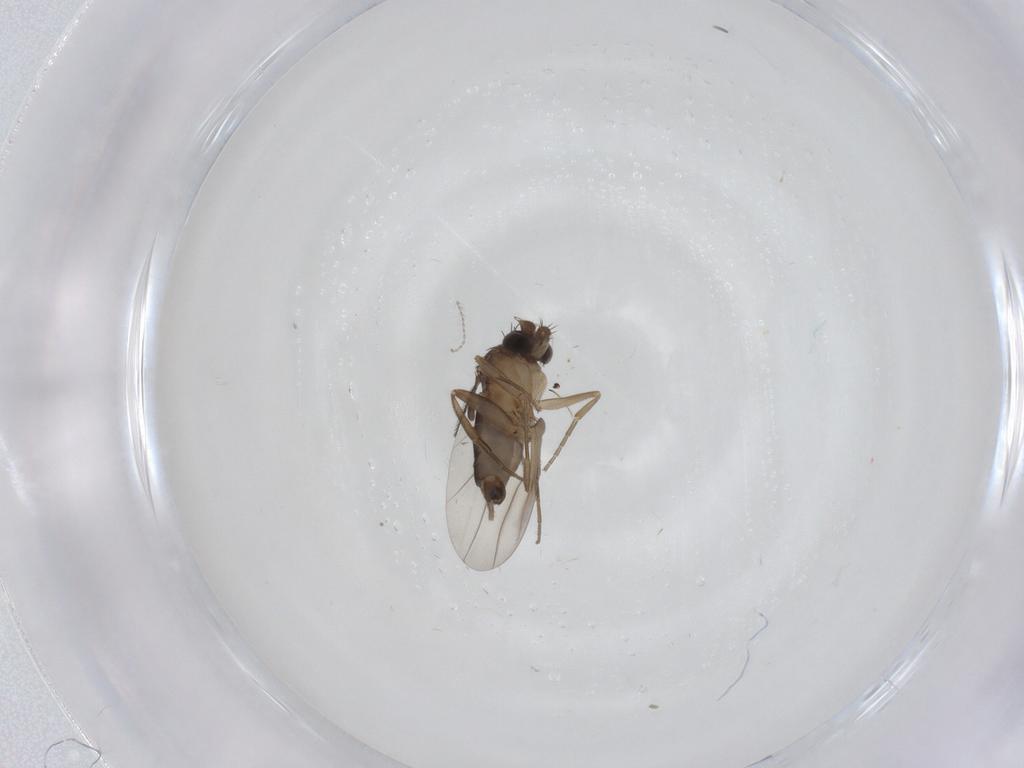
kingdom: Animalia
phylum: Arthropoda
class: Insecta
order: Diptera
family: Phoridae
